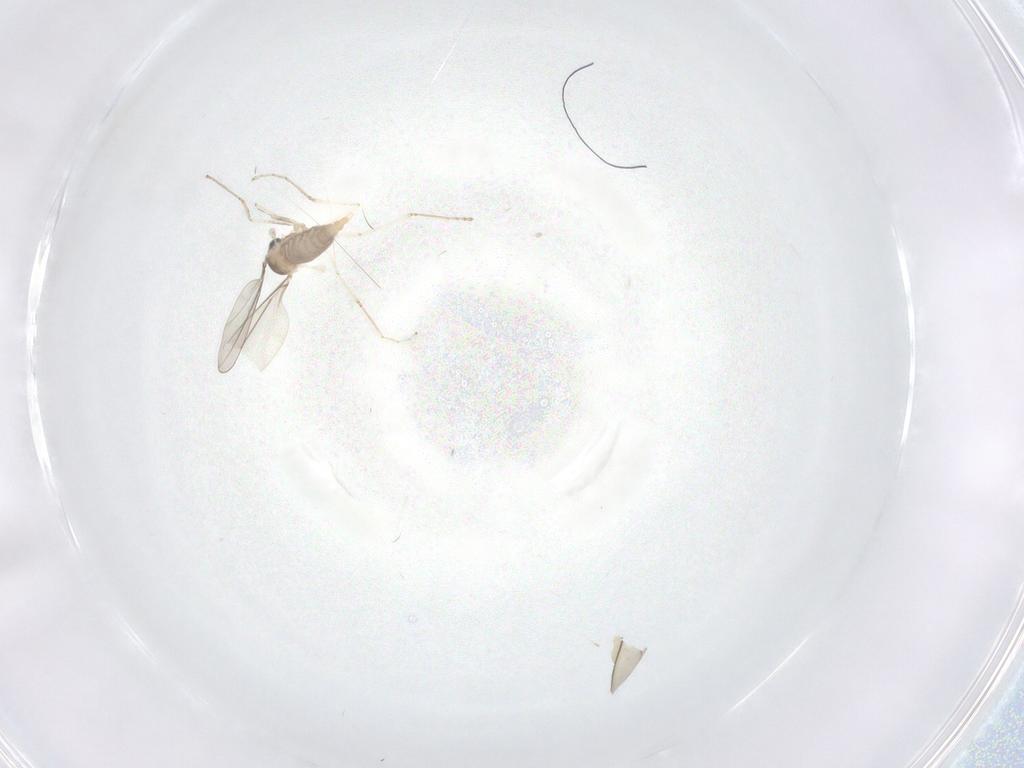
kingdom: Animalia
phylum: Arthropoda
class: Insecta
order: Diptera
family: Cecidomyiidae
